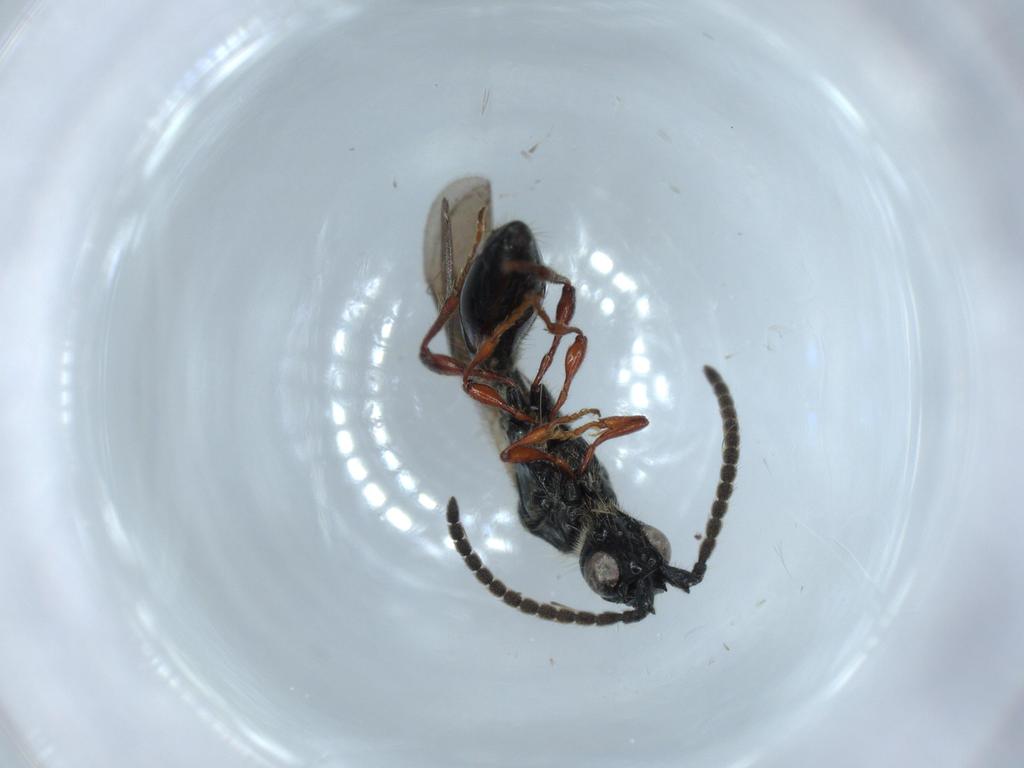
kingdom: Animalia
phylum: Arthropoda
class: Insecta
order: Hymenoptera
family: Diapriidae
